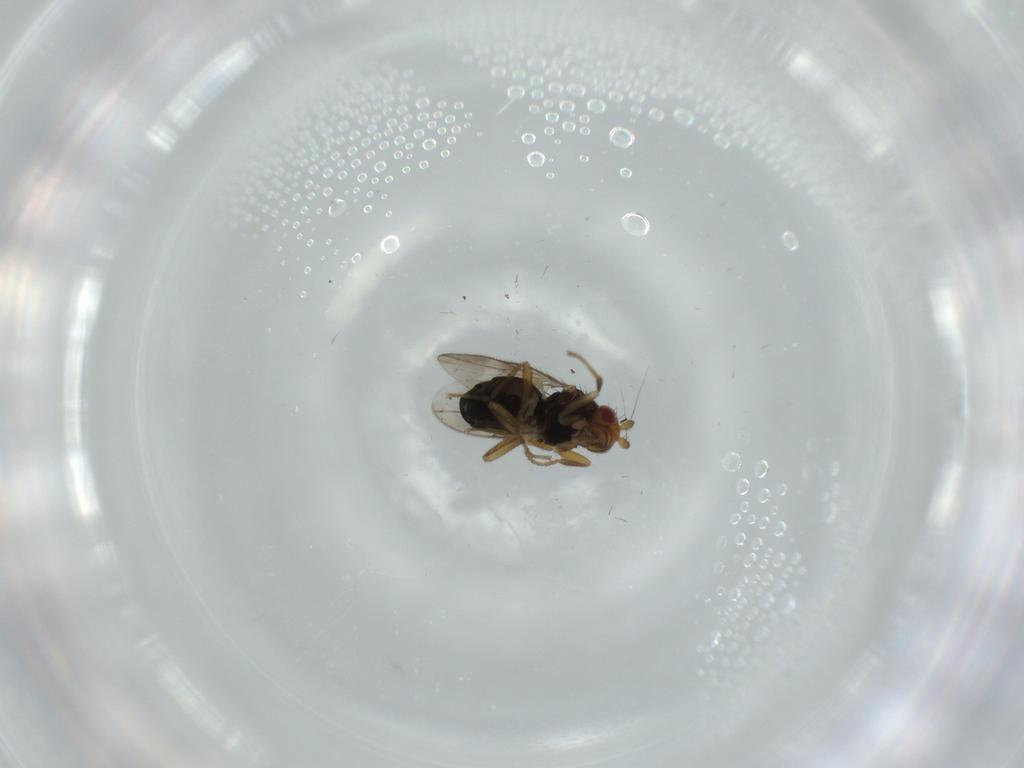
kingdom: Animalia
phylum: Arthropoda
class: Insecta
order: Diptera
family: Sphaeroceridae
